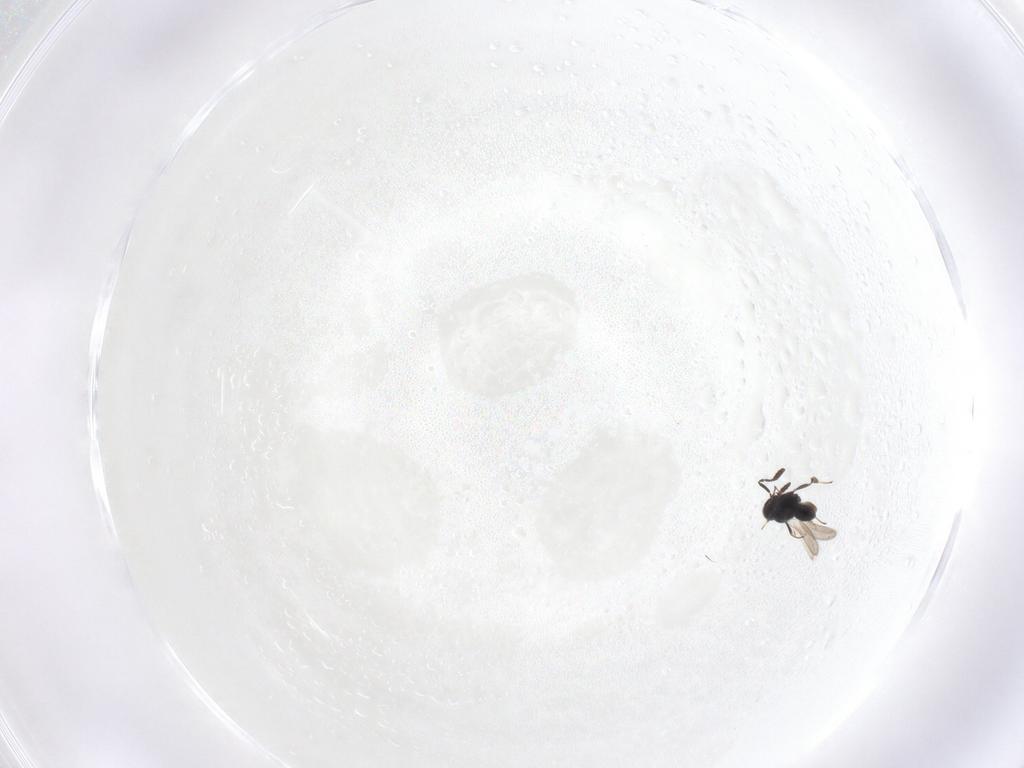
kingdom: Animalia
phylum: Arthropoda
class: Insecta
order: Hymenoptera
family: Scelionidae
